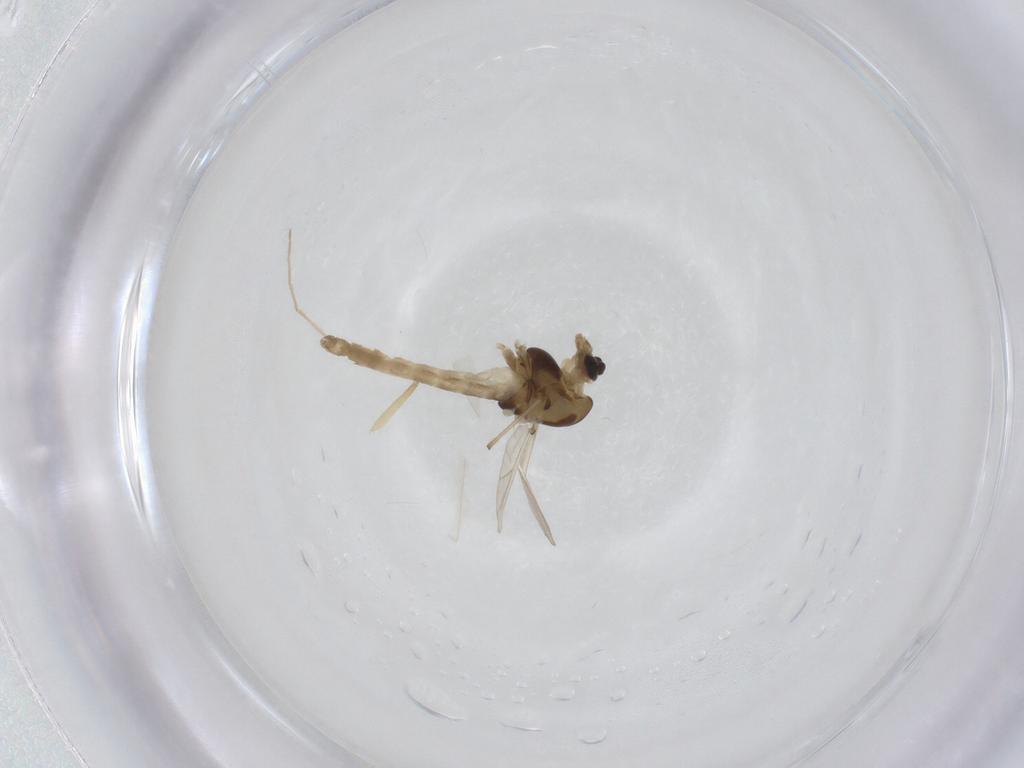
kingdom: Animalia
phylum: Arthropoda
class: Insecta
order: Diptera
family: Chironomidae
